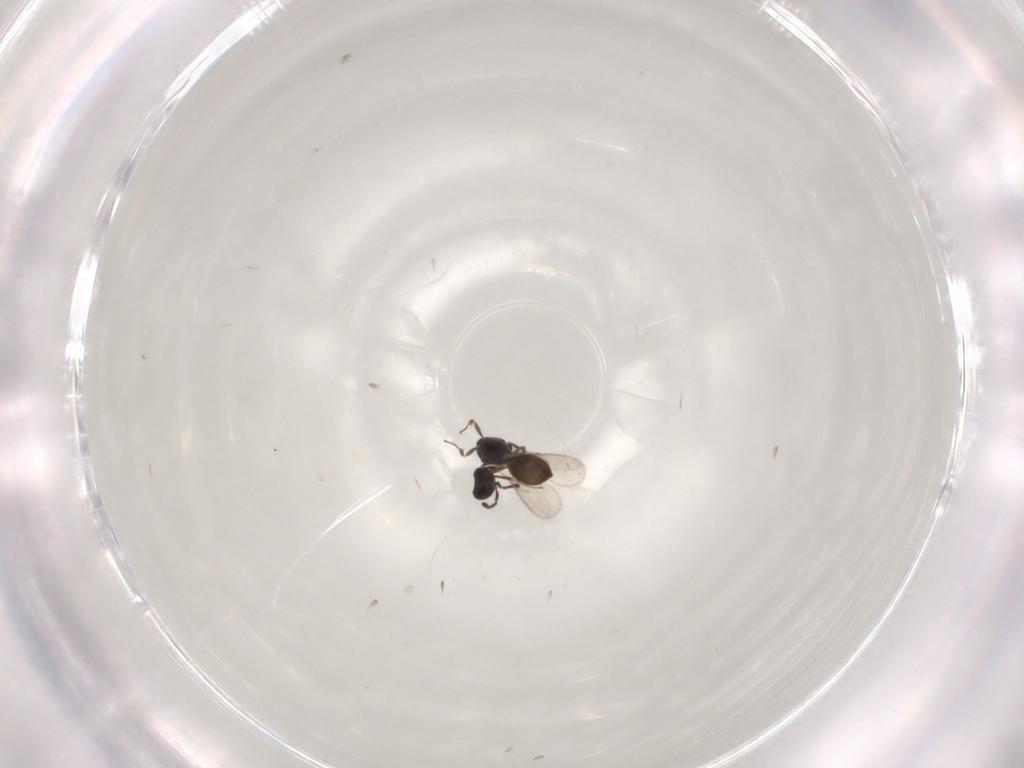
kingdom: Animalia
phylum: Arthropoda
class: Insecta
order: Hymenoptera
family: Scelionidae
